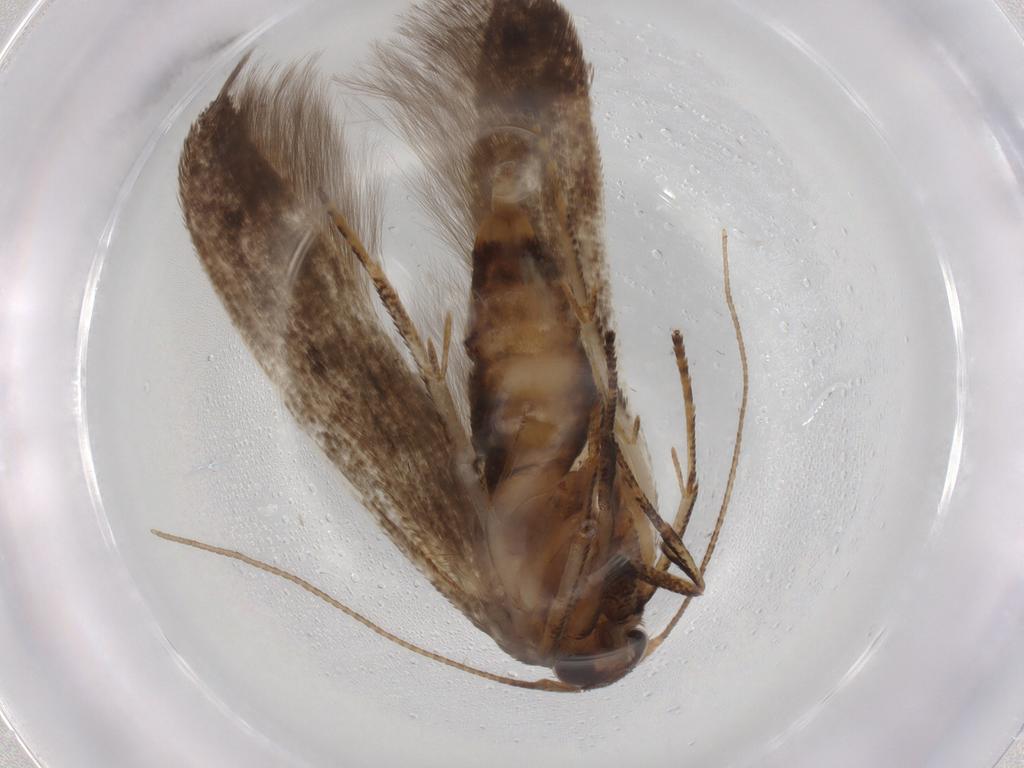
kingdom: Animalia
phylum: Arthropoda
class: Insecta
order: Lepidoptera
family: Blastobasidae
